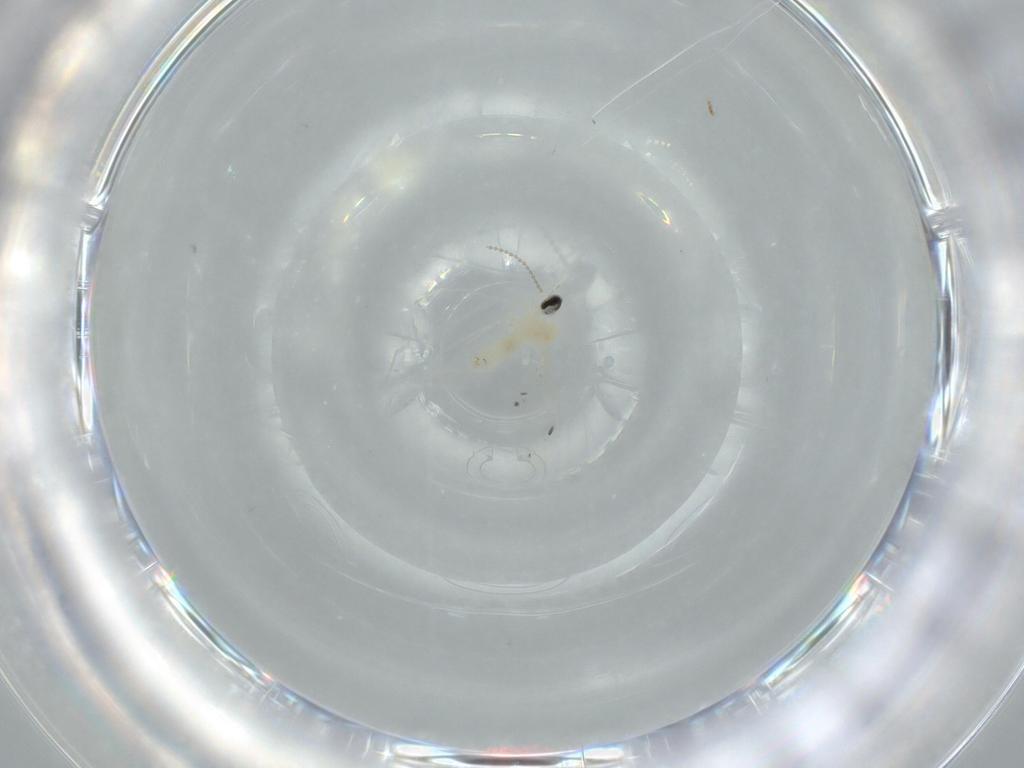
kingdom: Animalia
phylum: Arthropoda
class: Insecta
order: Diptera
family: Cecidomyiidae
